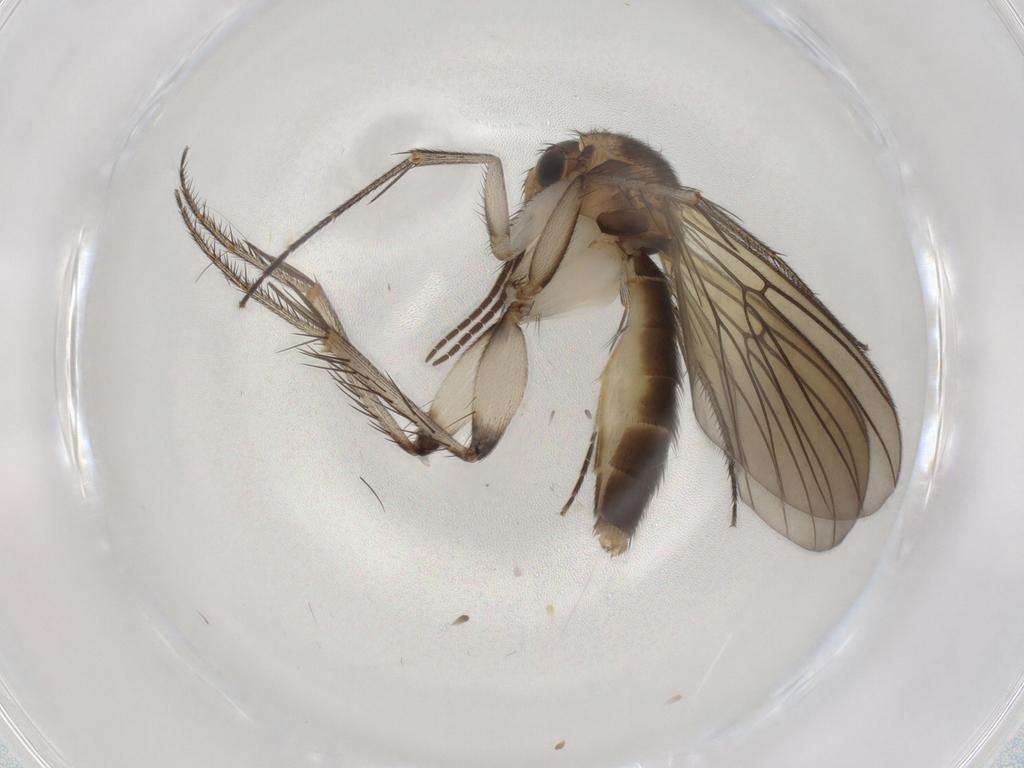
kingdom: Animalia
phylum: Arthropoda
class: Insecta
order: Diptera
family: Mycetophilidae
